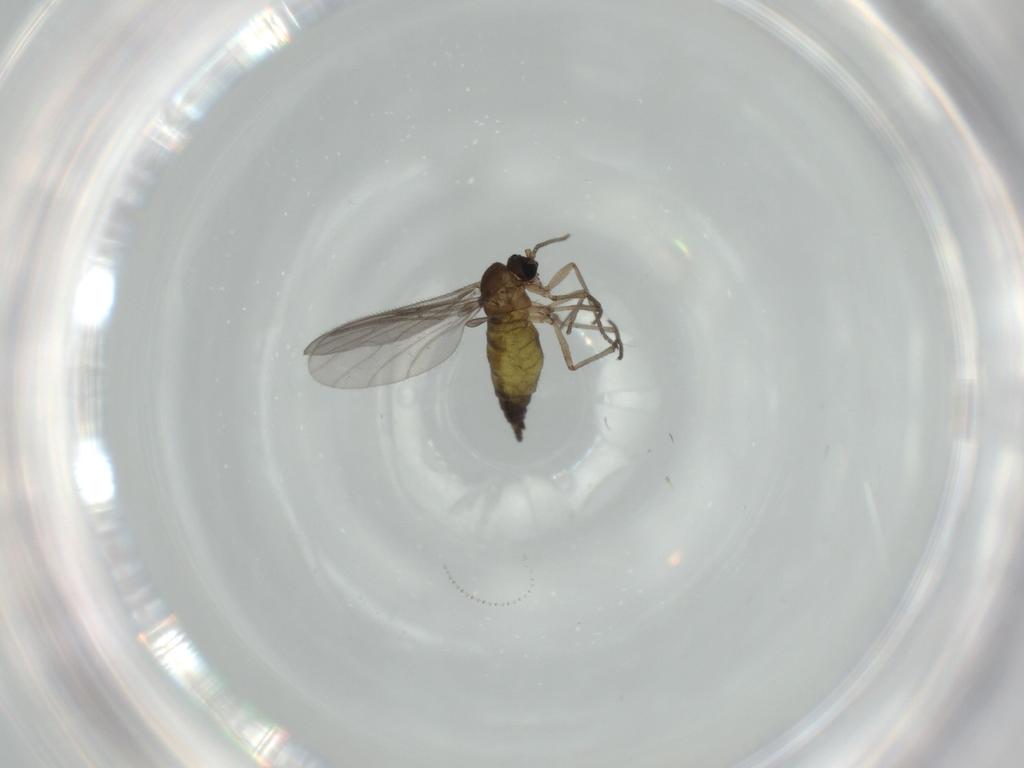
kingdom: Animalia
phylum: Arthropoda
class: Insecta
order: Diptera
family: Sciaridae
